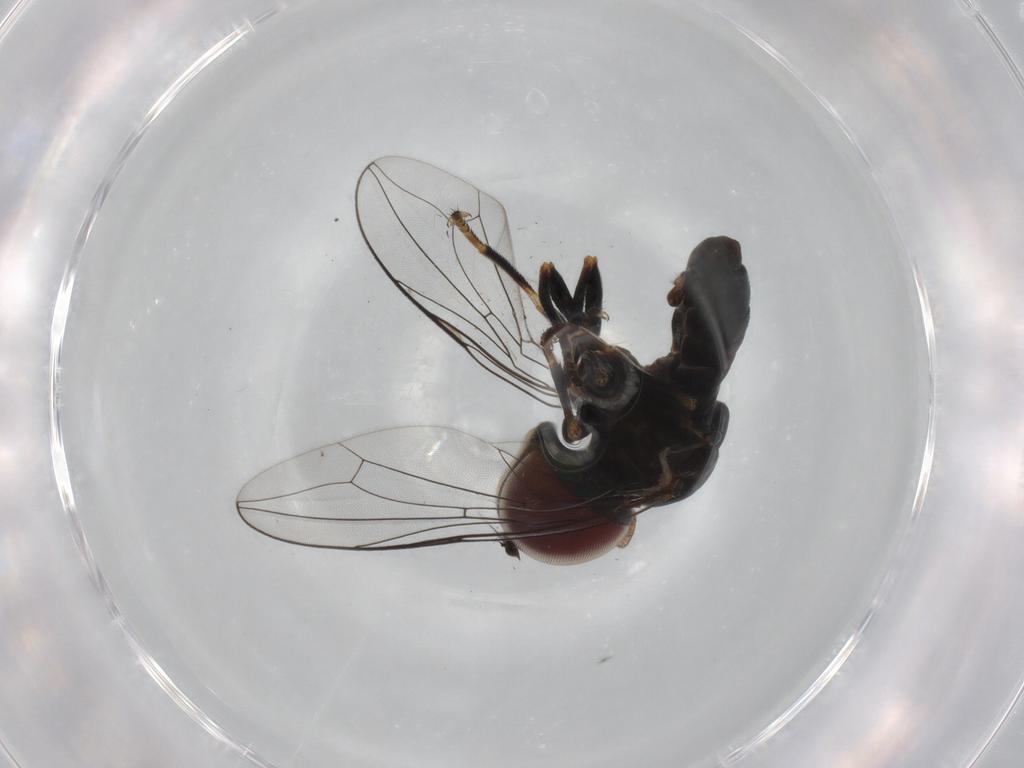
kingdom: Animalia
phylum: Arthropoda
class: Insecta
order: Diptera
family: Pipunculidae
